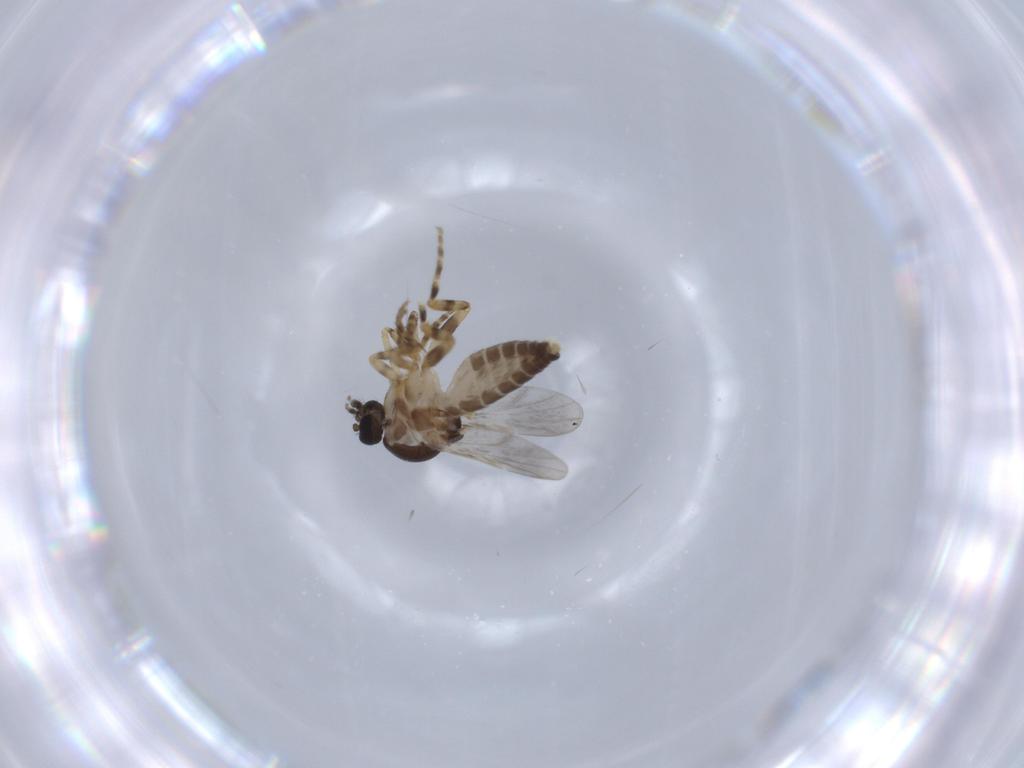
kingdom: Animalia
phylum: Arthropoda
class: Insecta
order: Diptera
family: Ceratopogonidae
